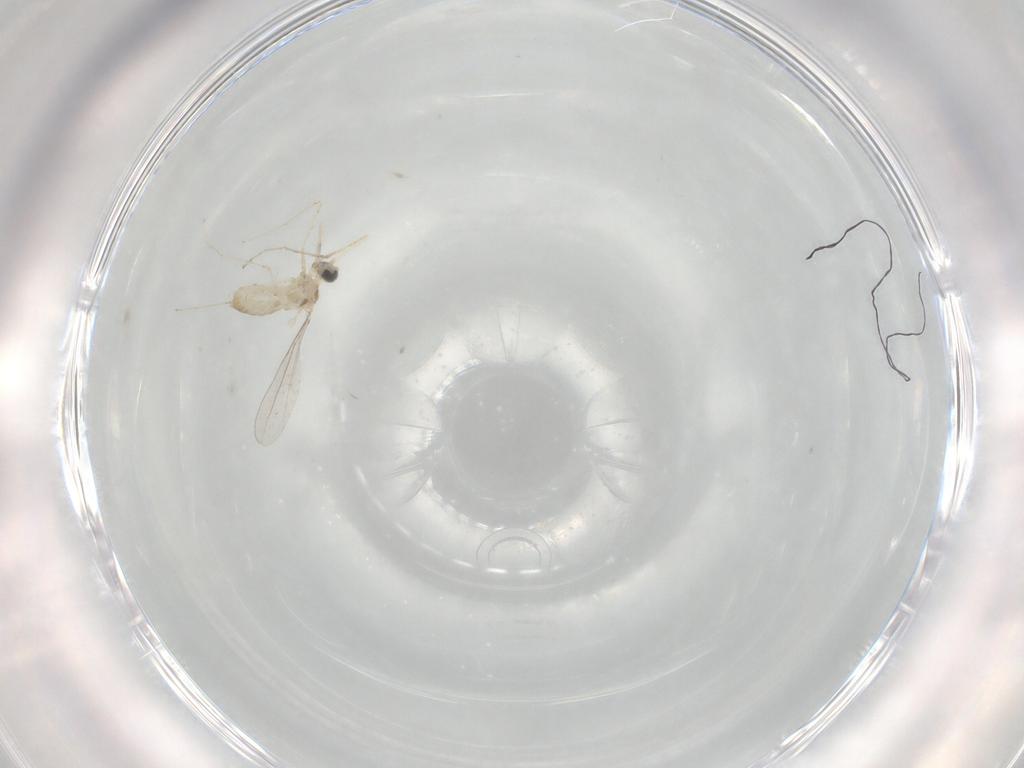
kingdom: Animalia
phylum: Arthropoda
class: Insecta
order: Diptera
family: Cecidomyiidae
